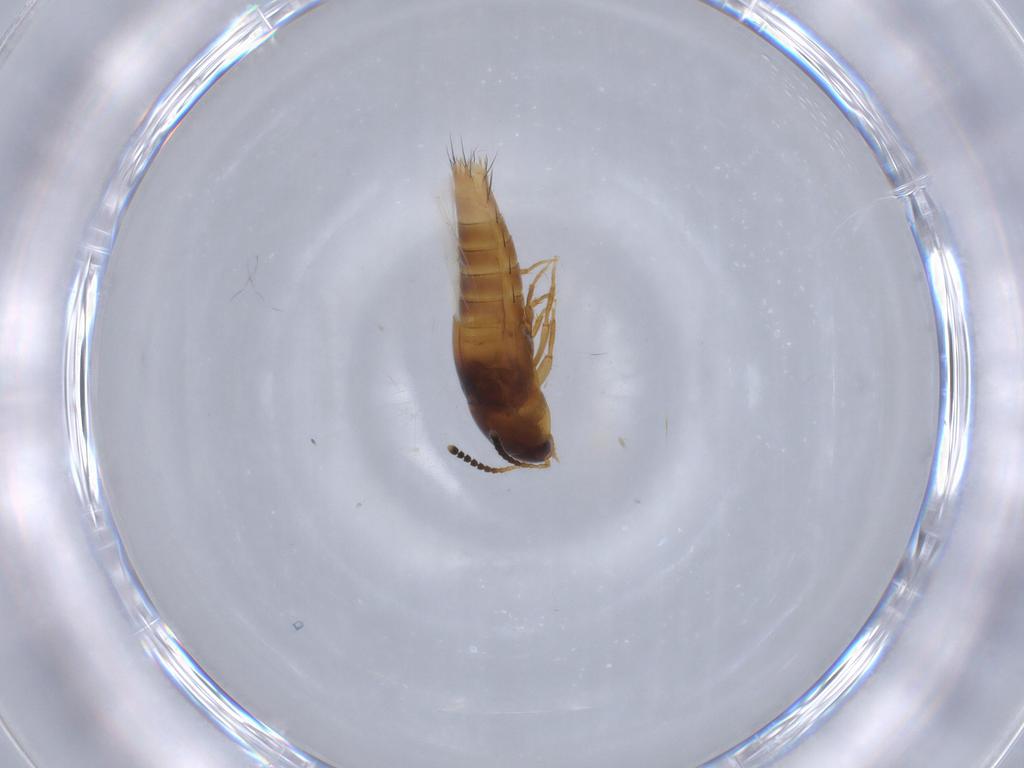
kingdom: Animalia
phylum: Arthropoda
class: Insecta
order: Coleoptera
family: Staphylinidae
